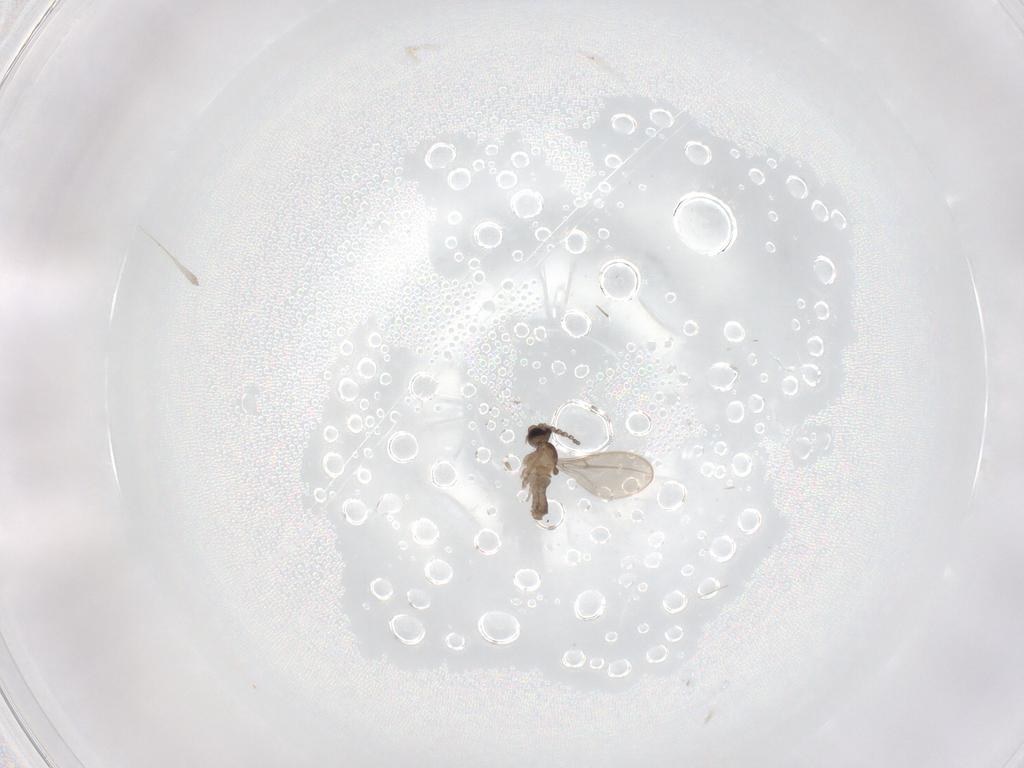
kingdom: Animalia
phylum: Arthropoda
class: Insecta
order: Diptera
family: Cecidomyiidae
